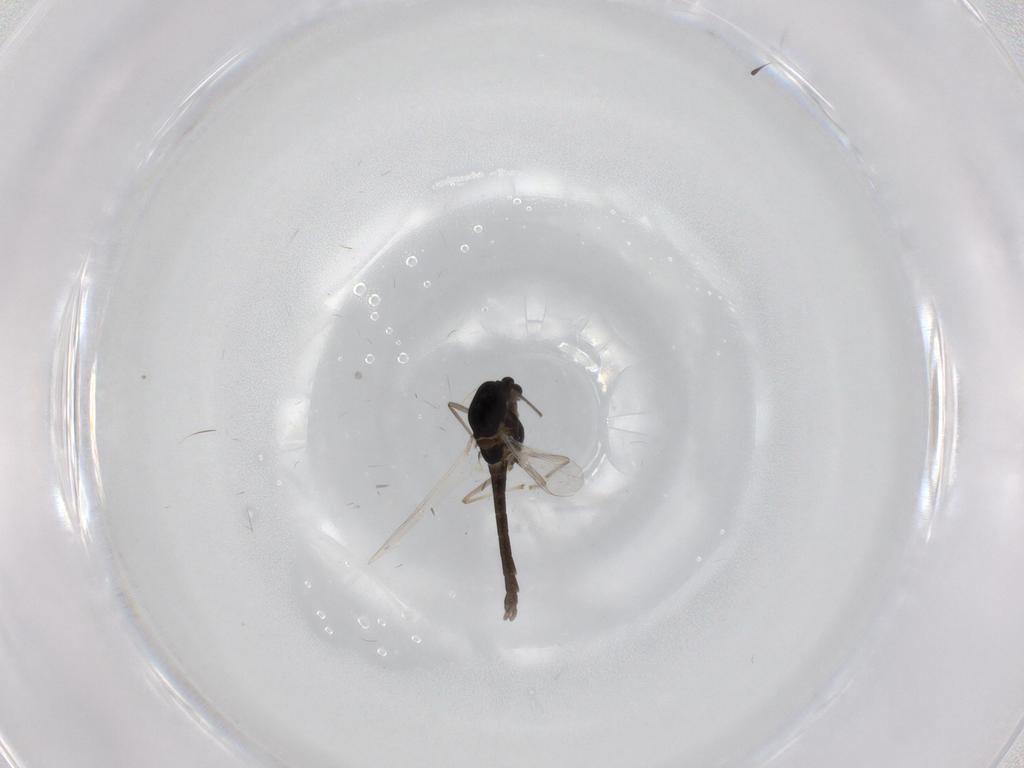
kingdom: Animalia
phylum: Arthropoda
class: Insecta
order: Diptera
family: Chironomidae
